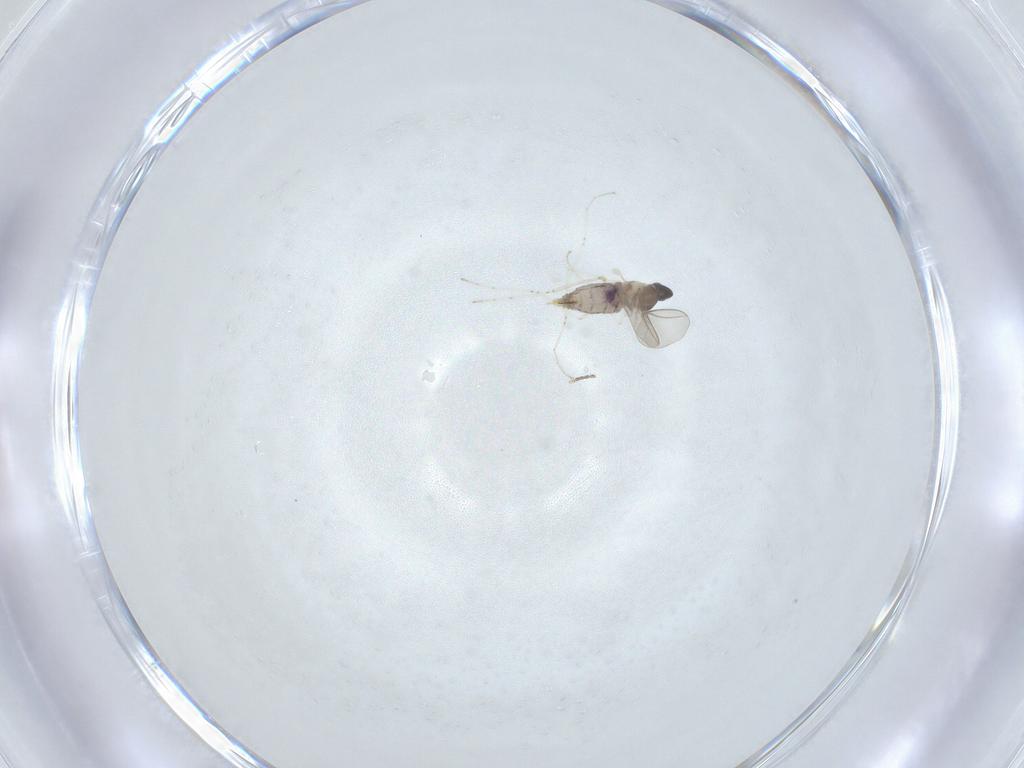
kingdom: Animalia
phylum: Arthropoda
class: Insecta
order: Diptera
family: Cecidomyiidae
